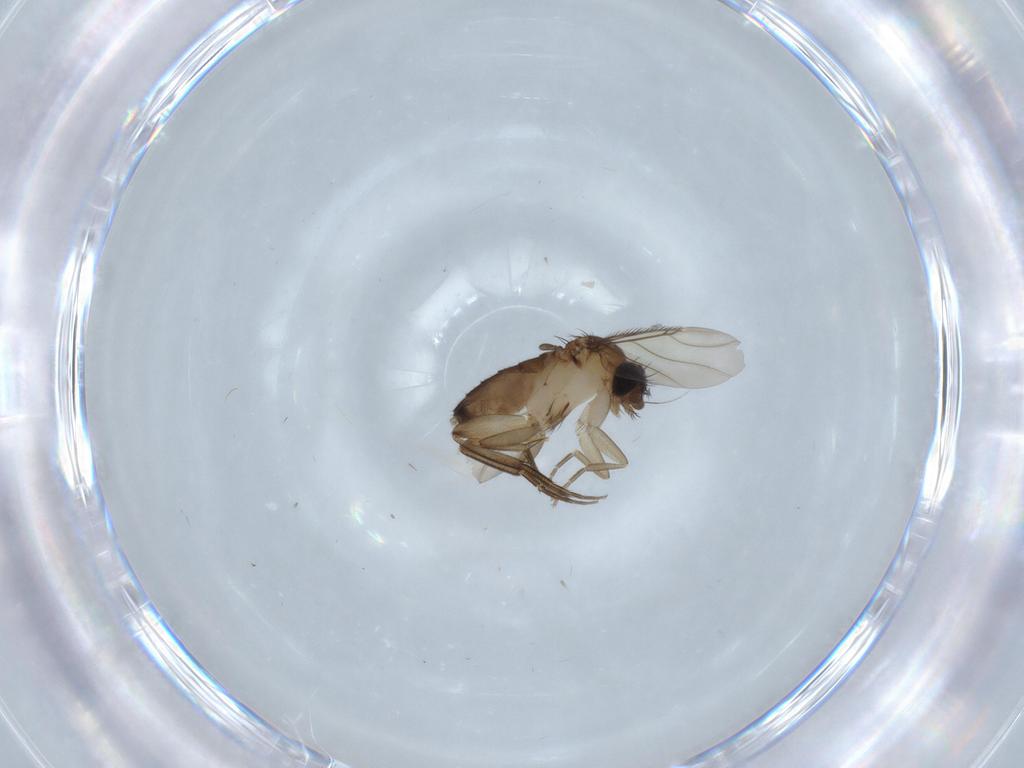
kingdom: Animalia
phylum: Arthropoda
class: Insecta
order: Diptera
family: Phoridae
